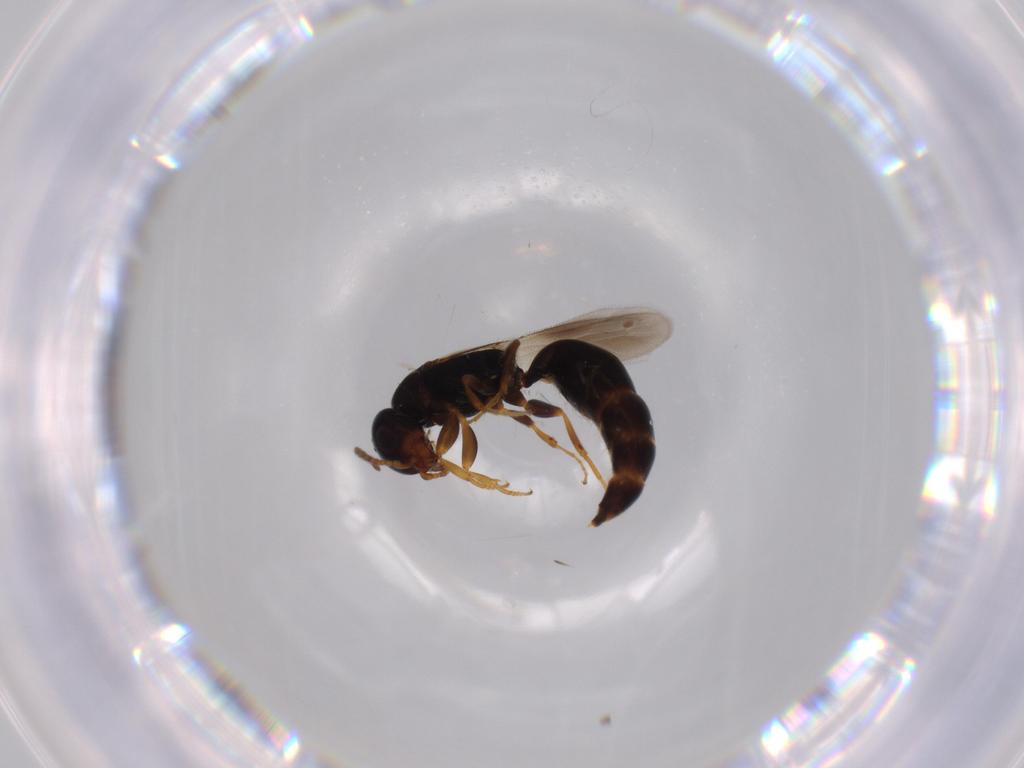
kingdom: Animalia
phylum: Arthropoda
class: Insecta
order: Hymenoptera
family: Bethylidae
